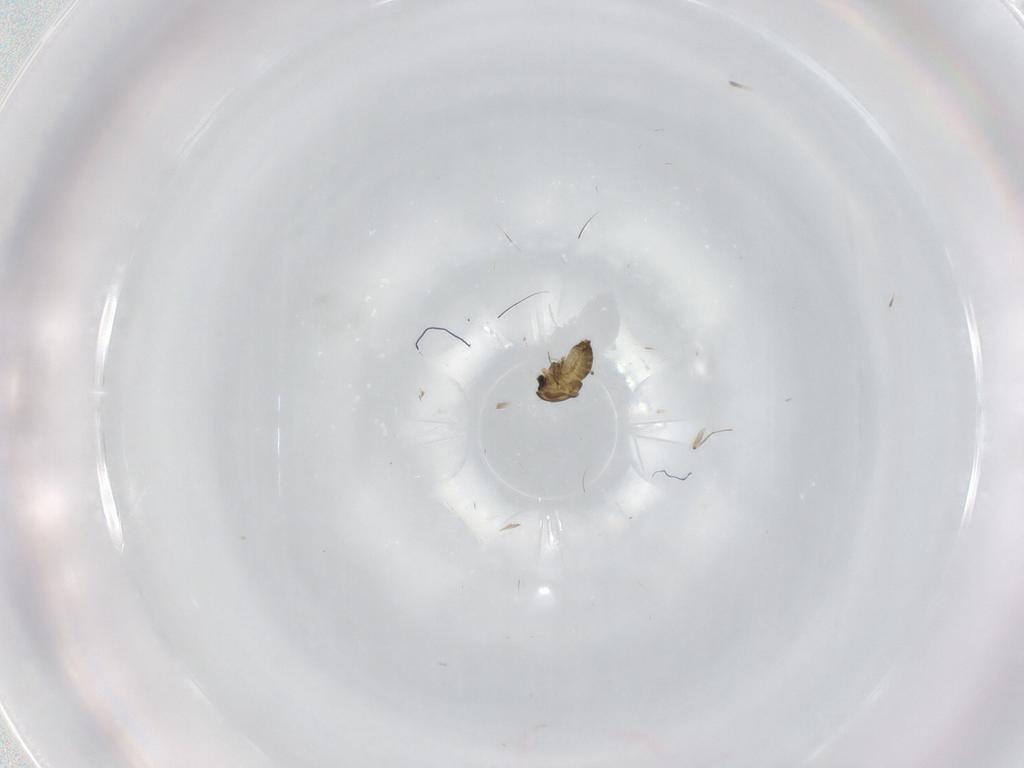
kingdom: Animalia
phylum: Arthropoda
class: Insecta
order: Diptera
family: Chironomidae
